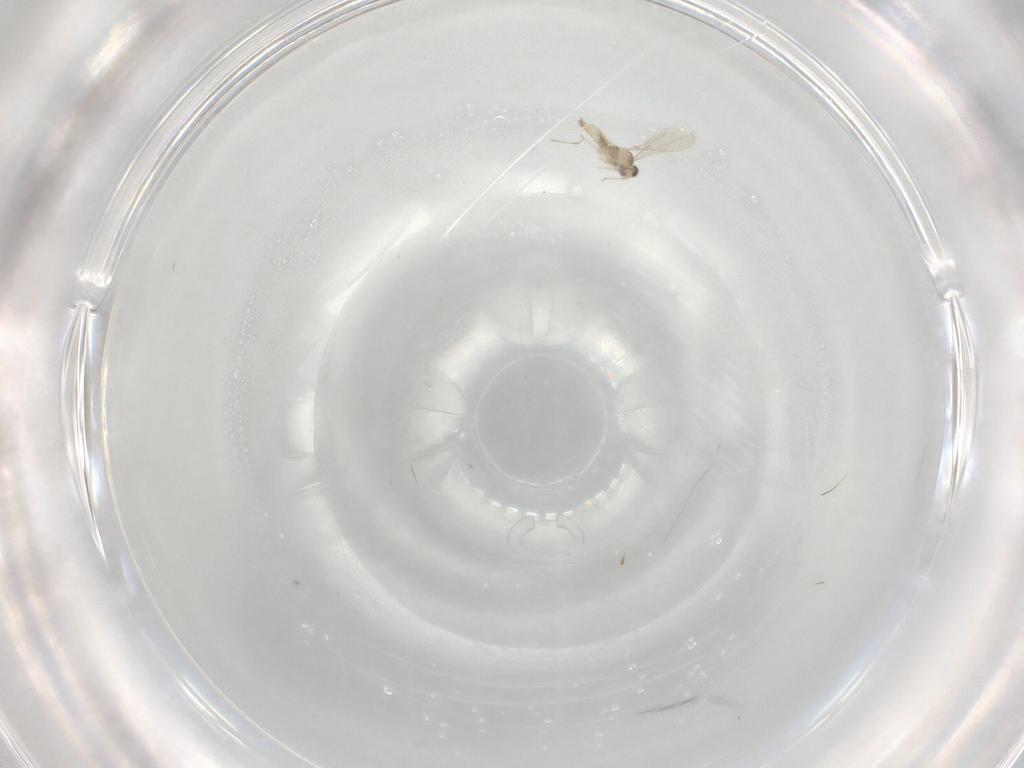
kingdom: Animalia
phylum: Arthropoda
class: Insecta
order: Diptera
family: Cecidomyiidae
